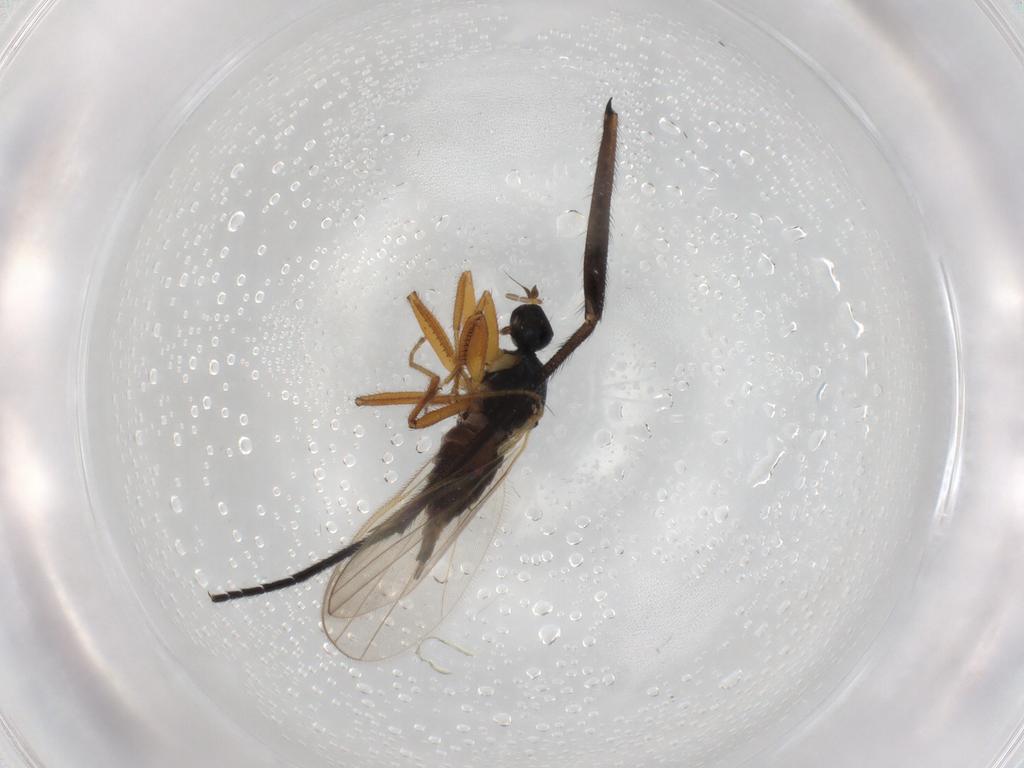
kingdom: Animalia
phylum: Arthropoda
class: Insecta
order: Diptera
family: Hybotidae
